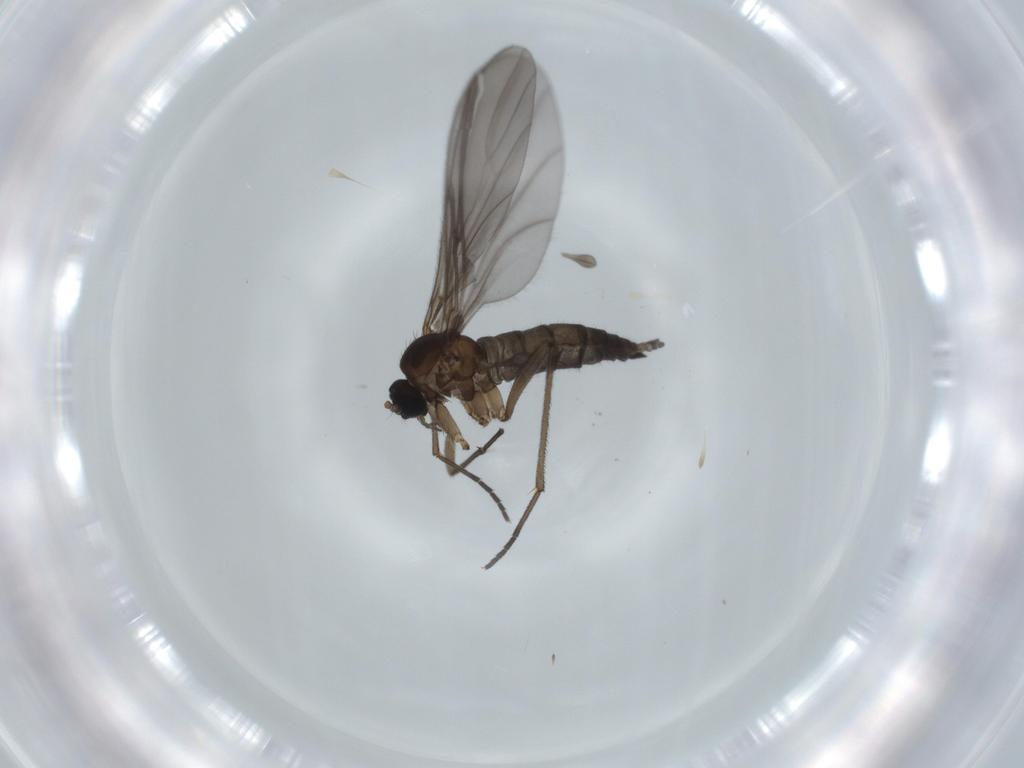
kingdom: Animalia
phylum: Arthropoda
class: Insecta
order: Diptera
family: Sciaridae
